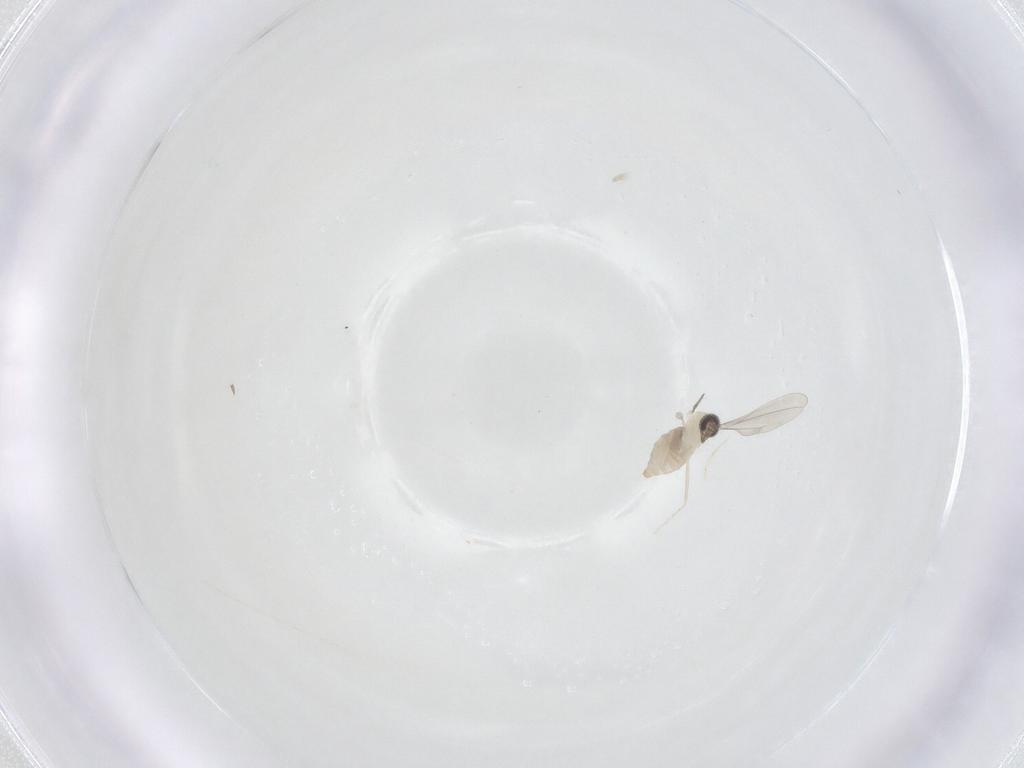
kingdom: Animalia
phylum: Arthropoda
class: Insecta
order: Diptera
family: Cecidomyiidae
